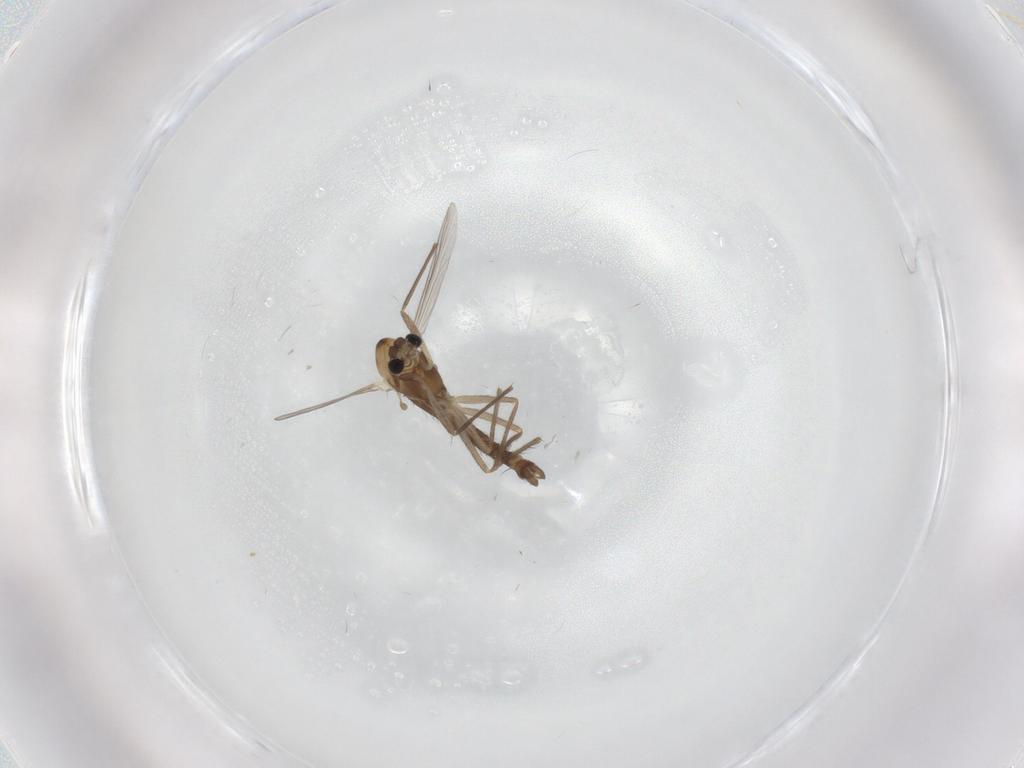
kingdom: Animalia
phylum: Arthropoda
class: Insecta
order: Diptera
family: Chironomidae
